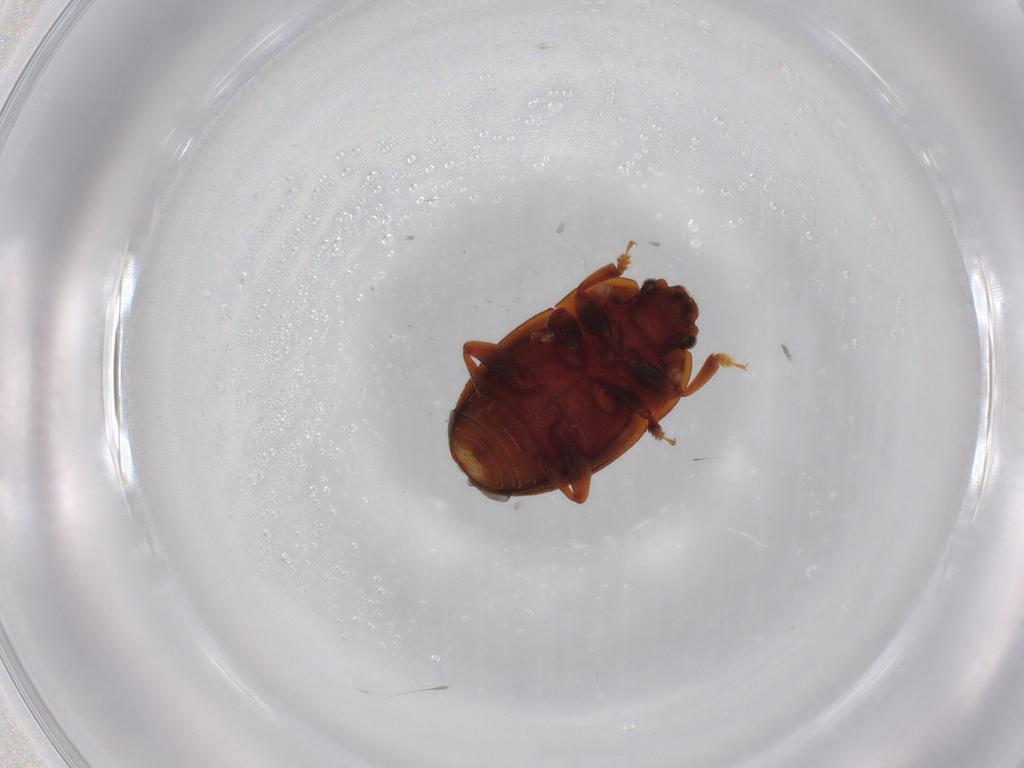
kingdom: Animalia
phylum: Arthropoda
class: Insecta
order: Coleoptera
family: Nitidulidae
